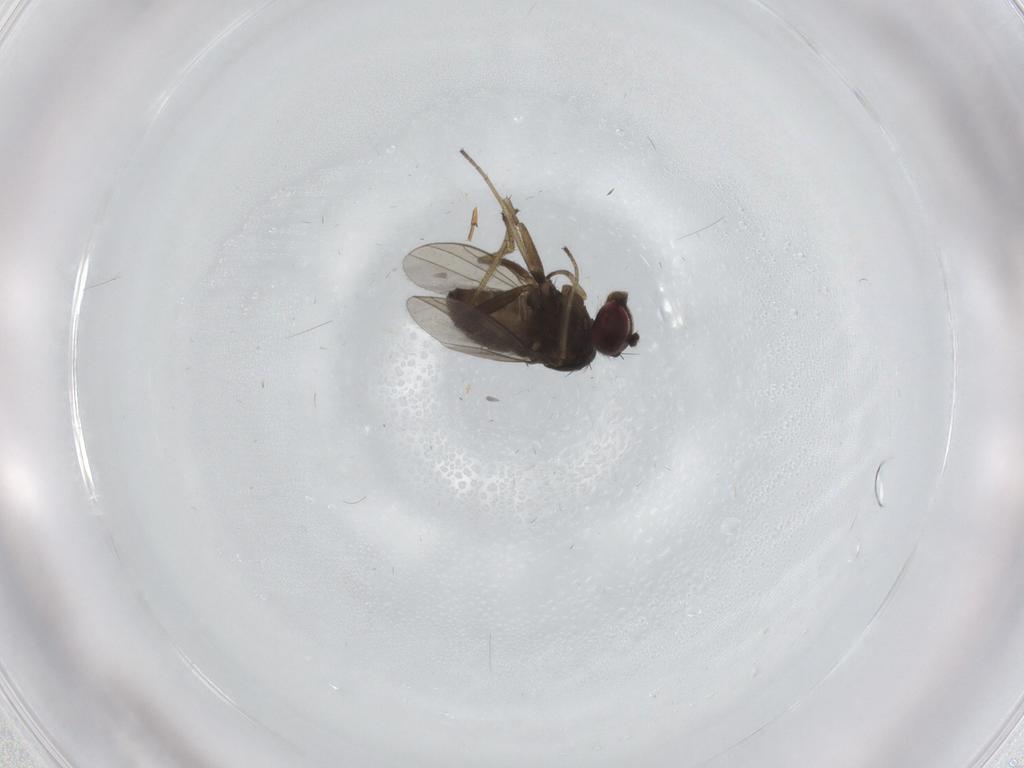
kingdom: Animalia
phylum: Arthropoda
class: Insecta
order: Diptera
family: Dolichopodidae
